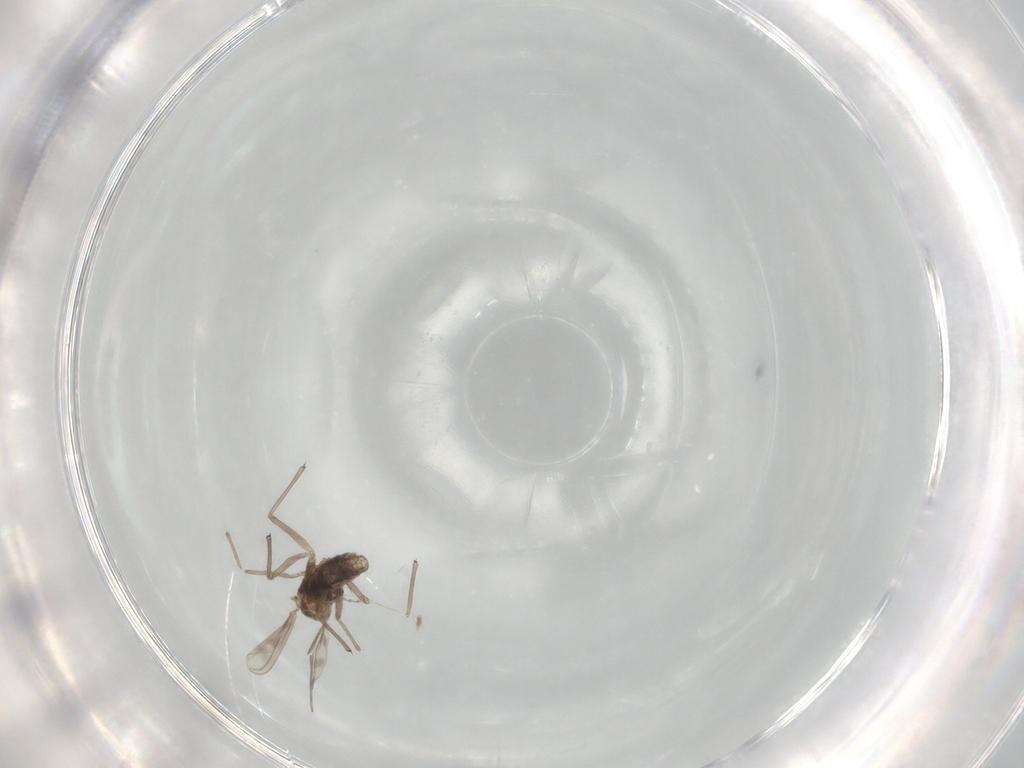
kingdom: Animalia
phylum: Arthropoda
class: Insecta
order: Diptera
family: Chironomidae
